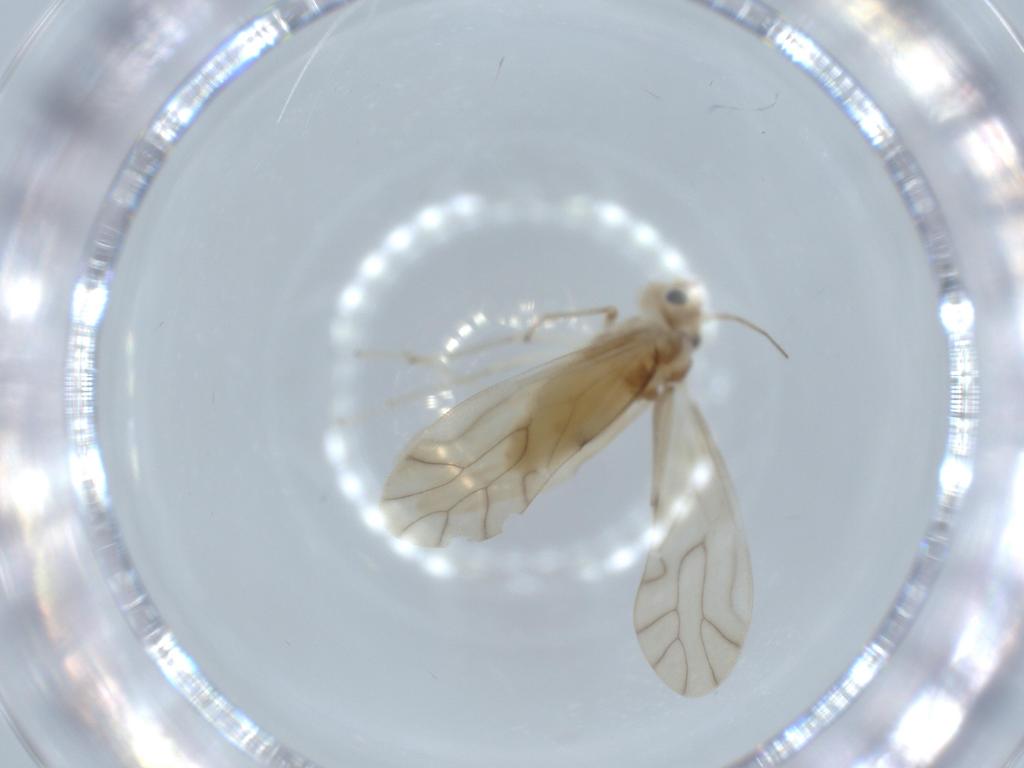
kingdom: Animalia
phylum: Arthropoda
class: Insecta
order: Psocodea
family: Caeciliusidae
